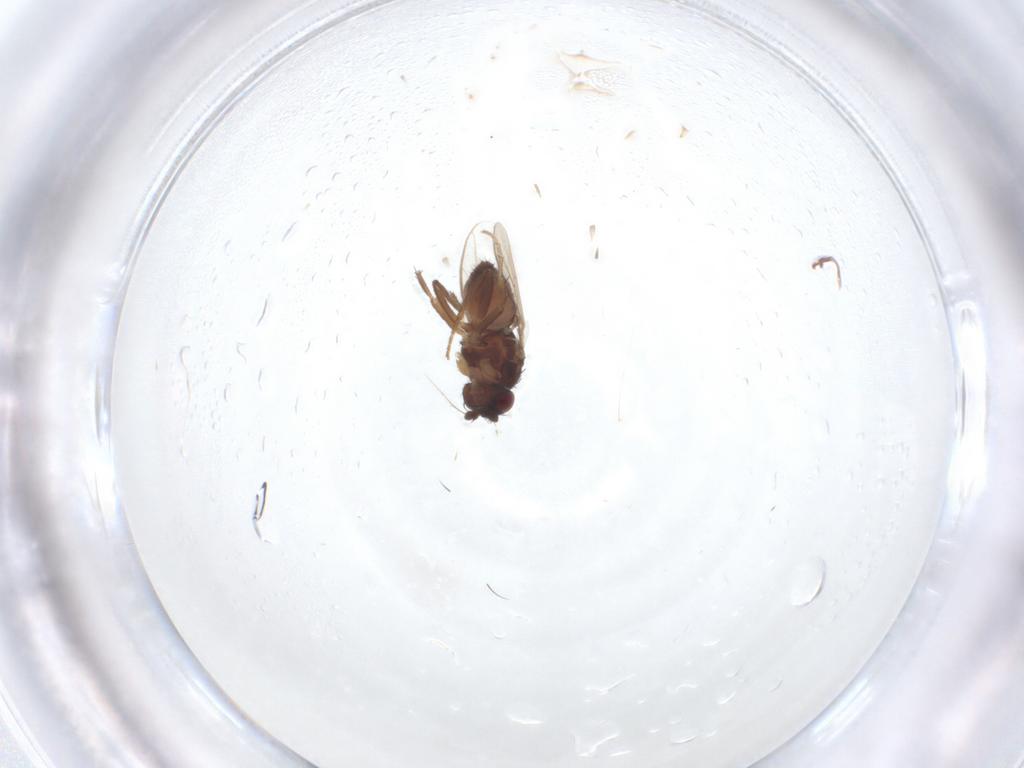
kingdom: Animalia
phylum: Arthropoda
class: Insecta
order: Diptera
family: Sphaeroceridae
